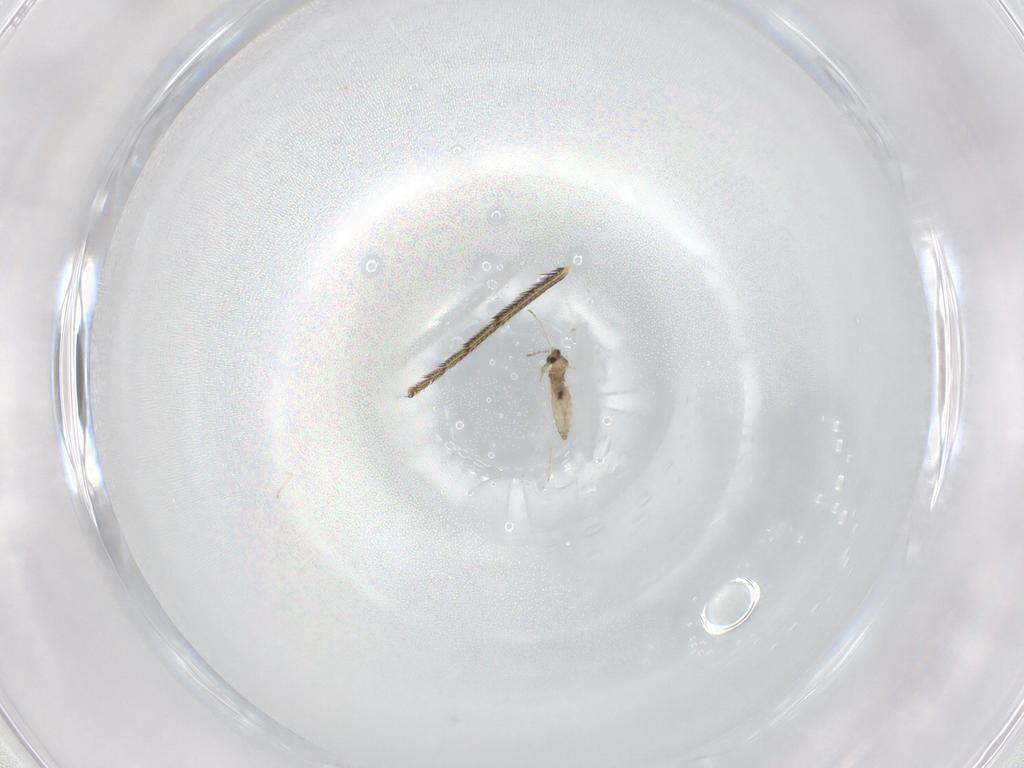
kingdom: Animalia
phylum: Arthropoda
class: Insecta
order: Diptera
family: Cecidomyiidae
